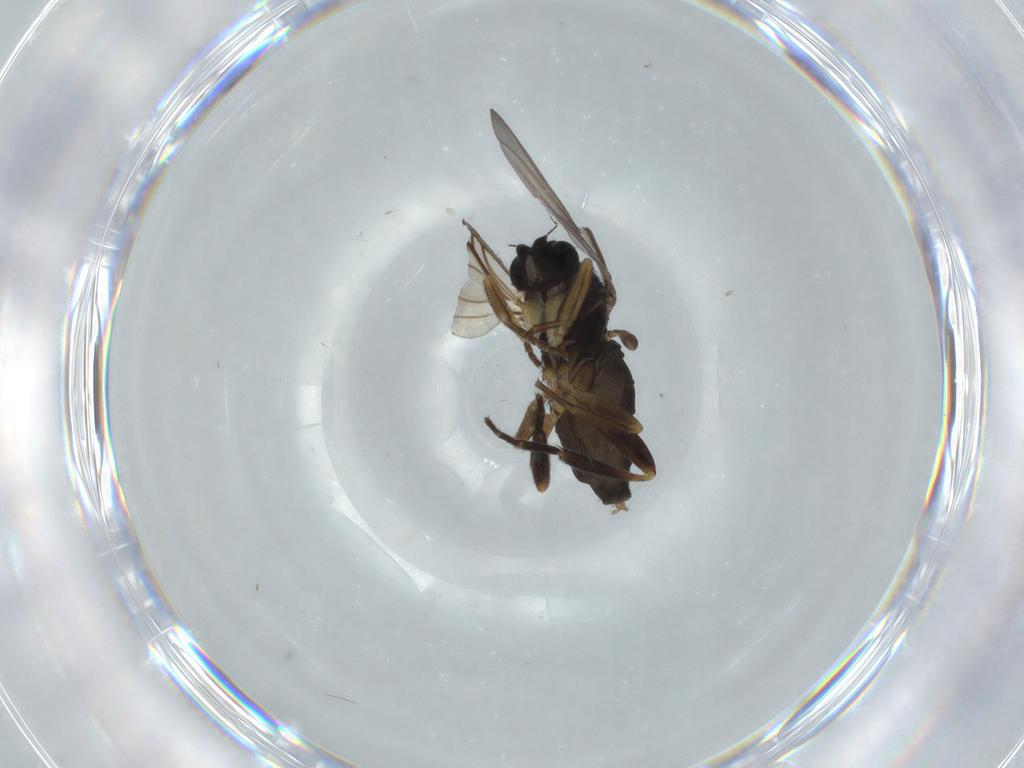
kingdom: Animalia
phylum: Arthropoda
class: Insecta
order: Diptera
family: Phoridae
